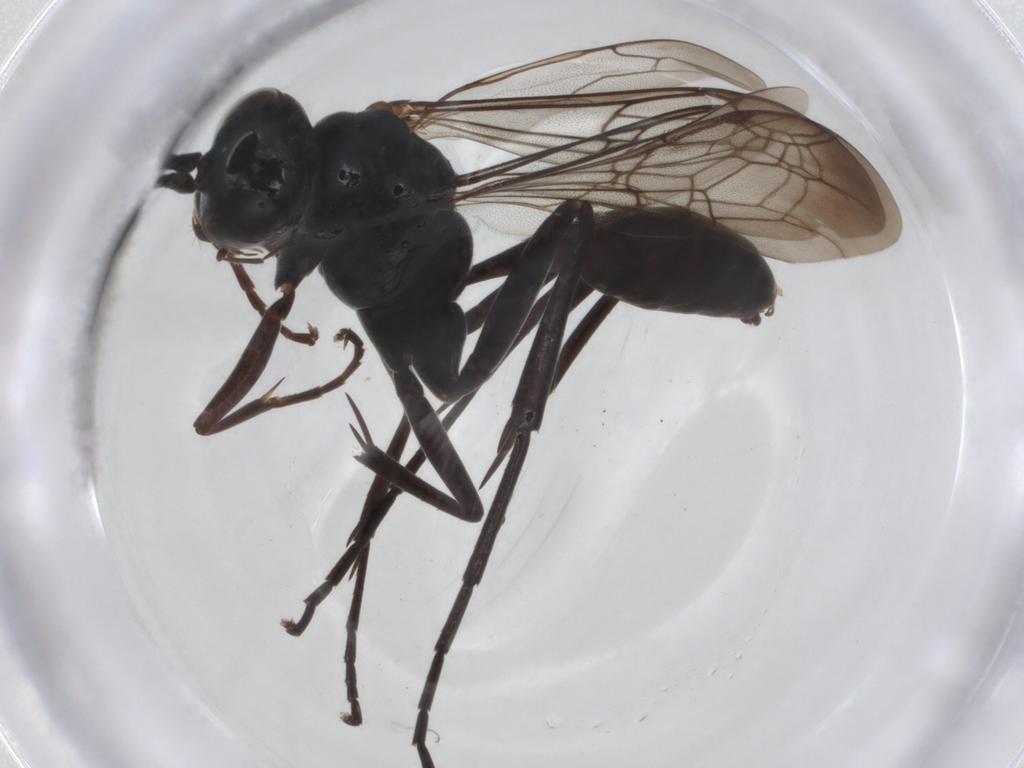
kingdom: Animalia
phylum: Arthropoda
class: Insecta
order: Hymenoptera
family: Pompilidae
